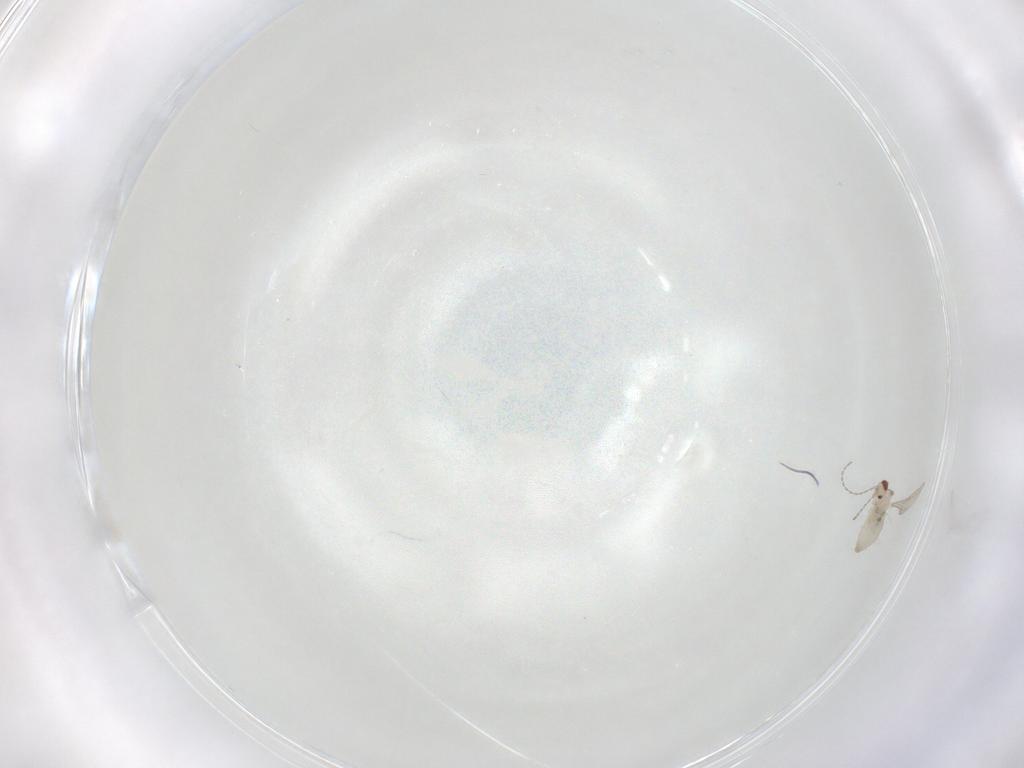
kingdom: Animalia
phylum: Arthropoda
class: Insecta
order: Diptera
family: Cecidomyiidae
